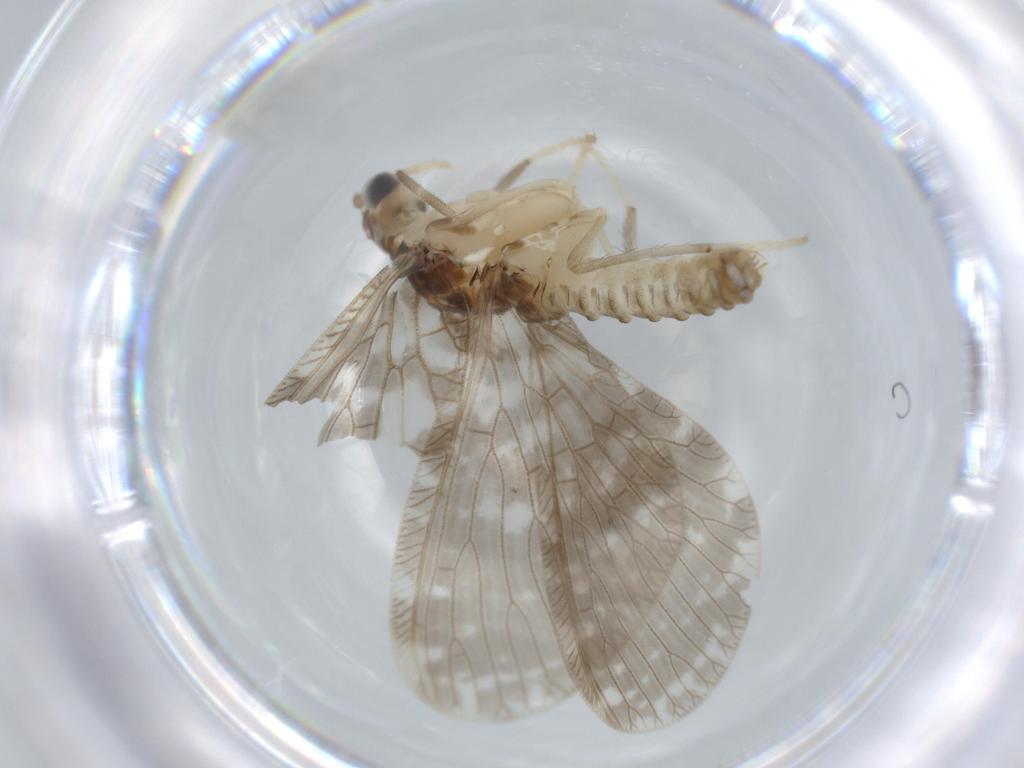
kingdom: Animalia
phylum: Arthropoda
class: Insecta
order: Neuroptera
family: Dilaridae
